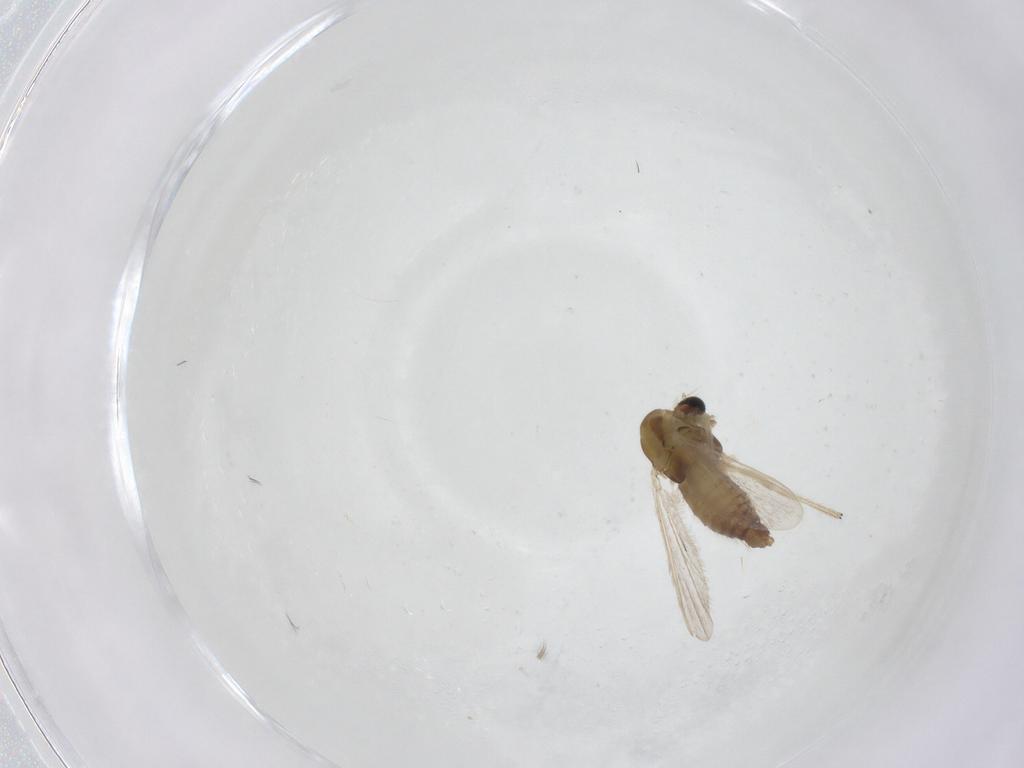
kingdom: Animalia
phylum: Arthropoda
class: Insecta
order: Diptera
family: Chironomidae
